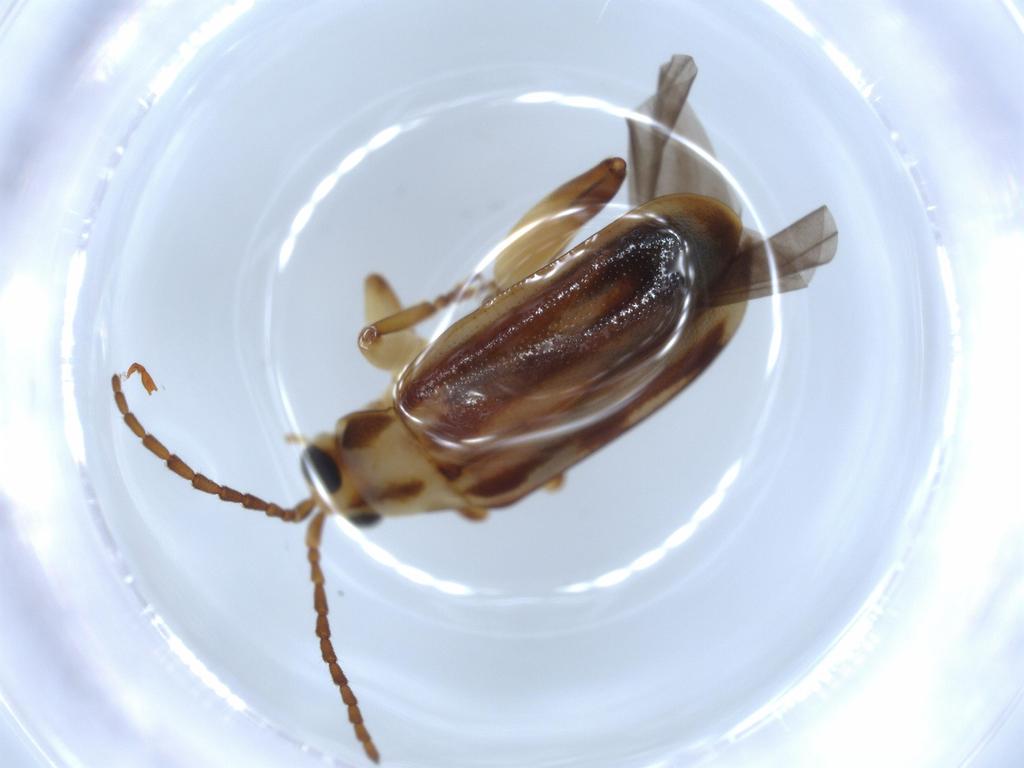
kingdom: Animalia
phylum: Arthropoda
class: Insecta
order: Coleoptera
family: Chrysomelidae
